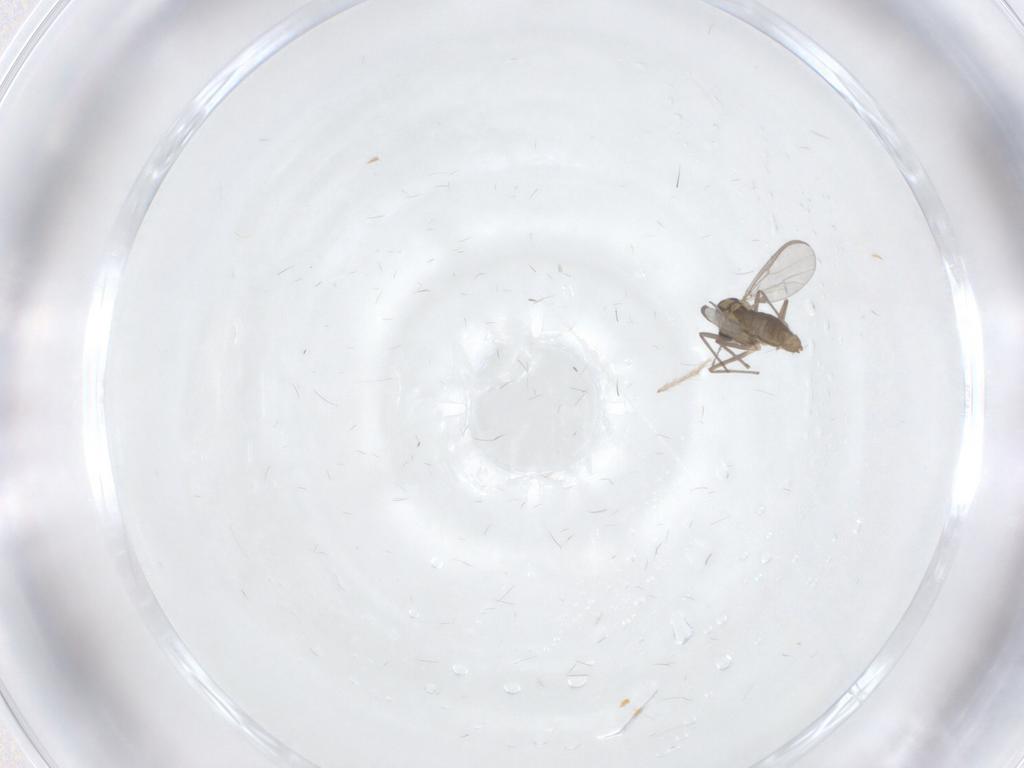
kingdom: Animalia
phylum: Arthropoda
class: Insecta
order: Diptera
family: Chironomidae
